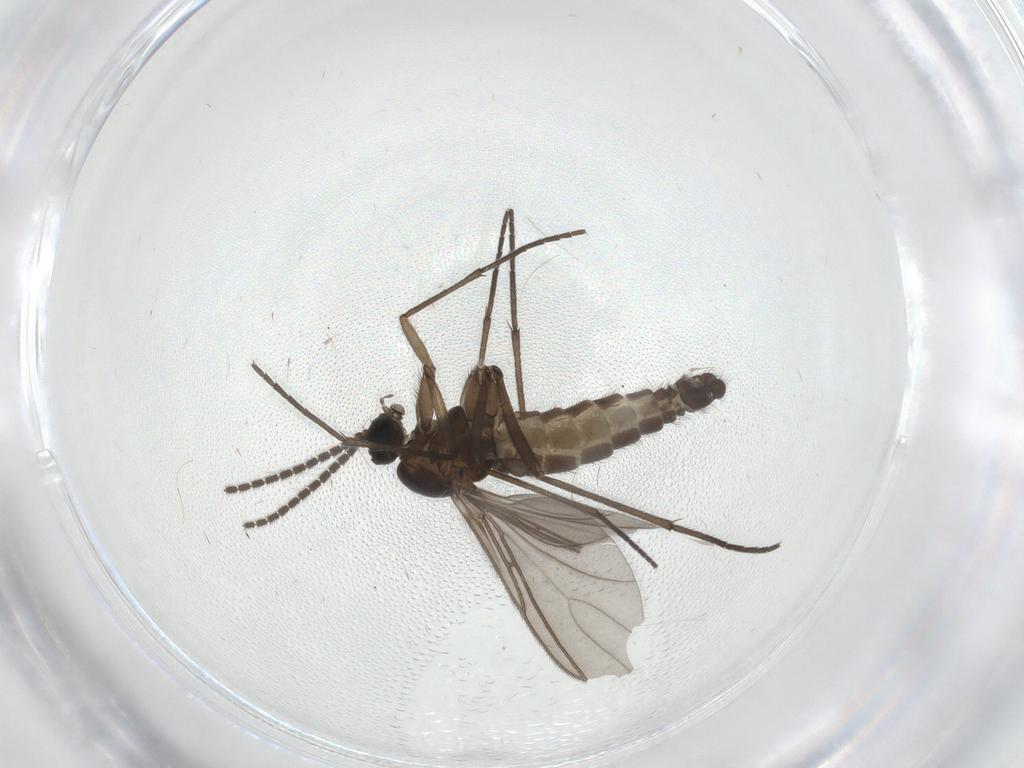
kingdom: Animalia
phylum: Arthropoda
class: Insecta
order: Diptera
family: Sciaridae
